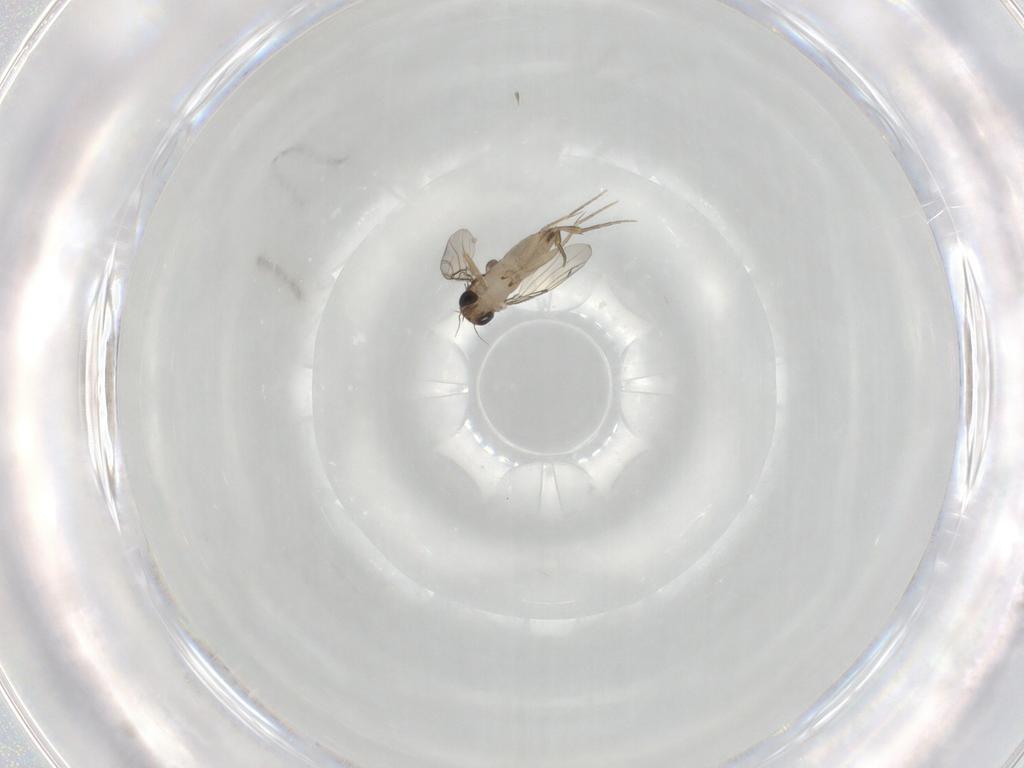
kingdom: Animalia
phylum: Arthropoda
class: Insecta
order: Diptera
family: Phoridae
